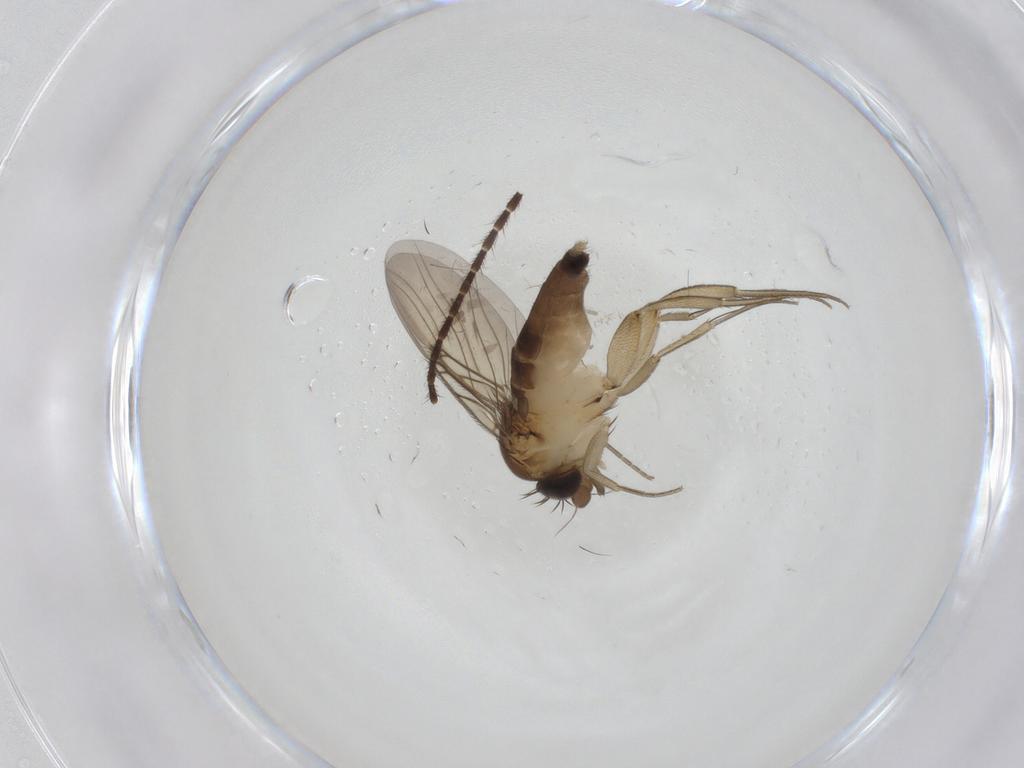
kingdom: Animalia
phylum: Arthropoda
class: Insecta
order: Diptera
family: Phoridae
